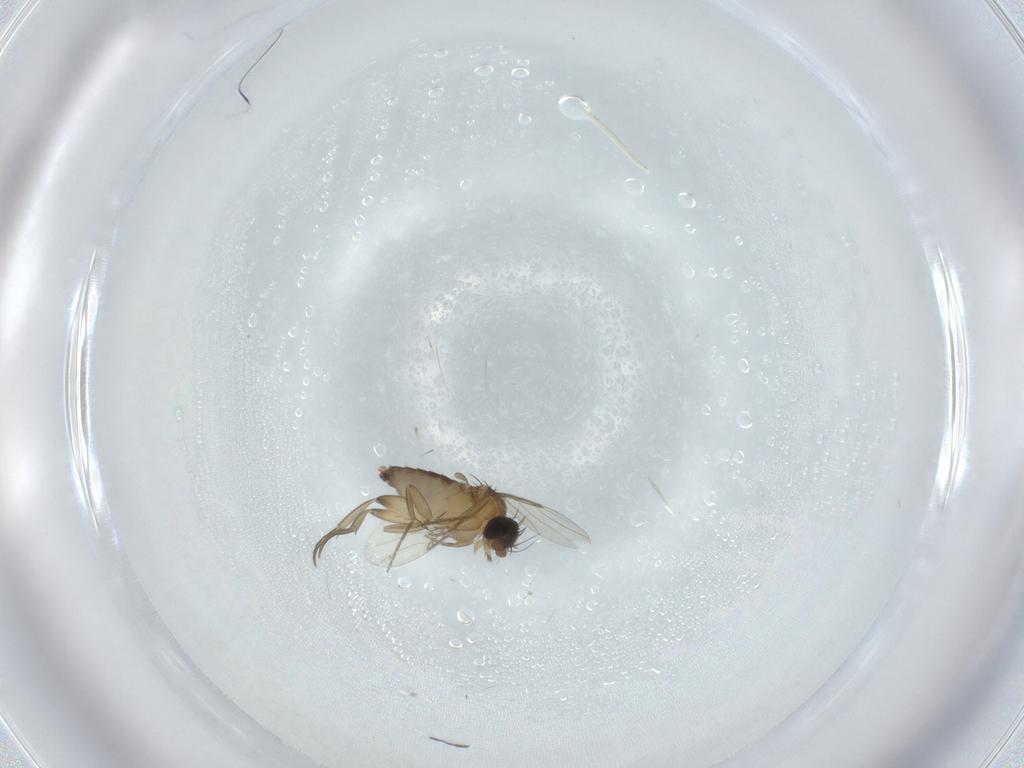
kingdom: Animalia
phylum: Arthropoda
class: Insecta
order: Diptera
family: Phoridae
